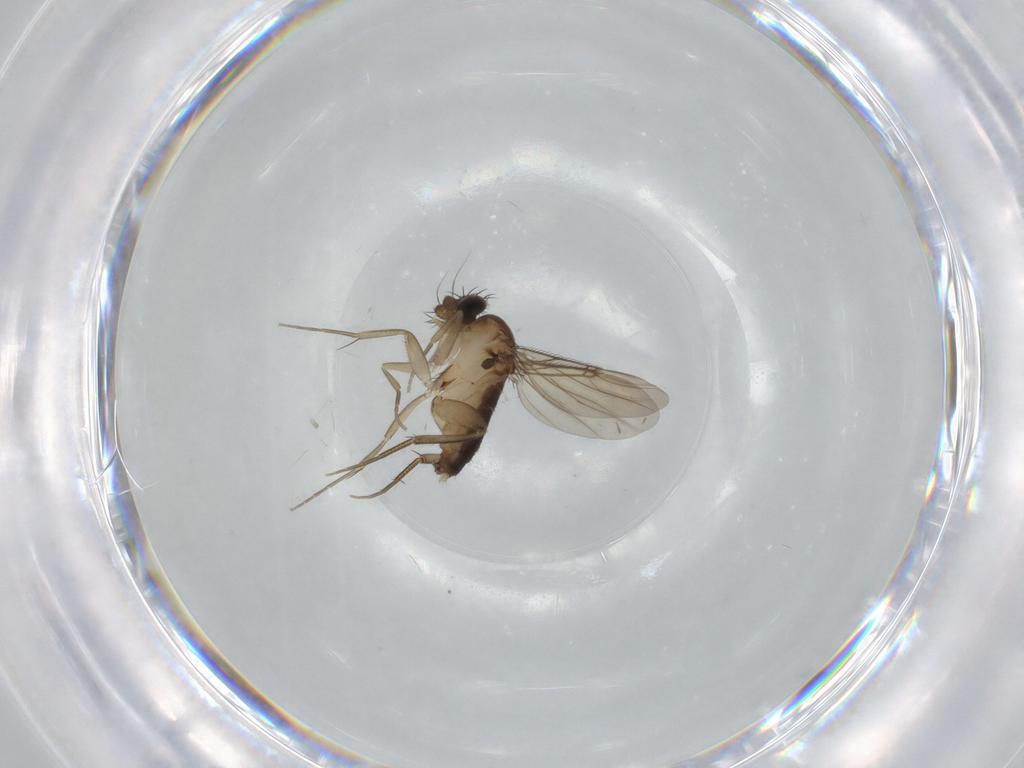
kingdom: Animalia
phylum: Arthropoda
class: Insecta
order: Diptera
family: Phoridae
